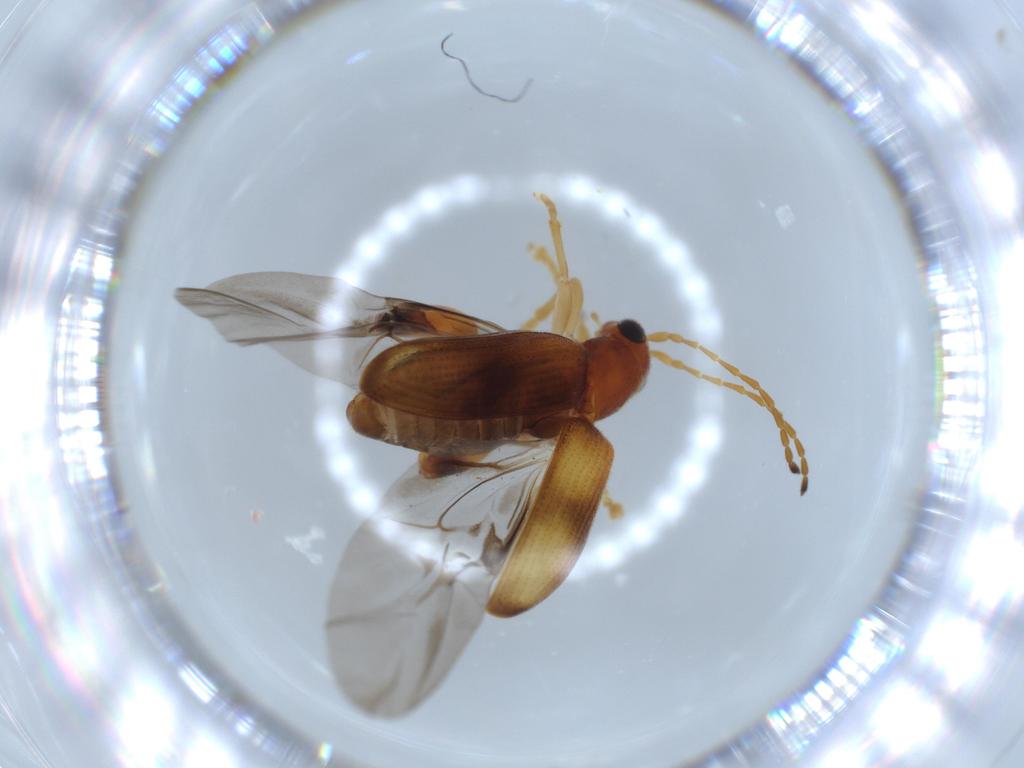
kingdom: Animalia
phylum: Arthropoda
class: Insecta
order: Coleoptera
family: Chrysomelidae
